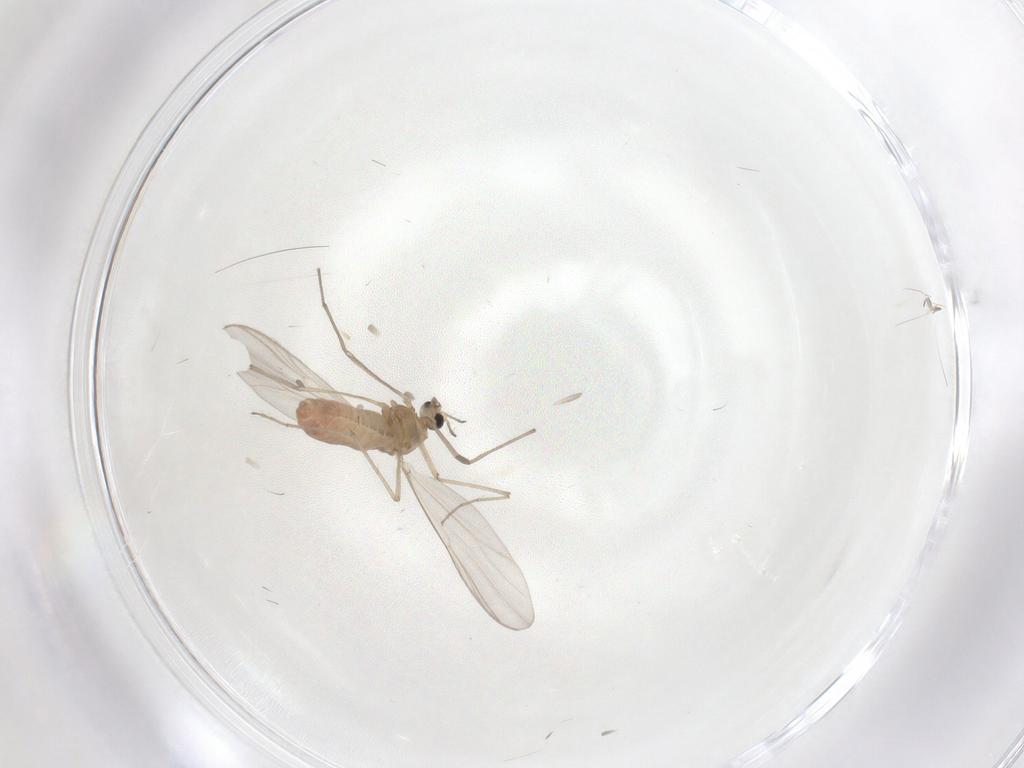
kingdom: Animalia
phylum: Arthropoda
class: Insecta
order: Diptera
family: Chironomidae
